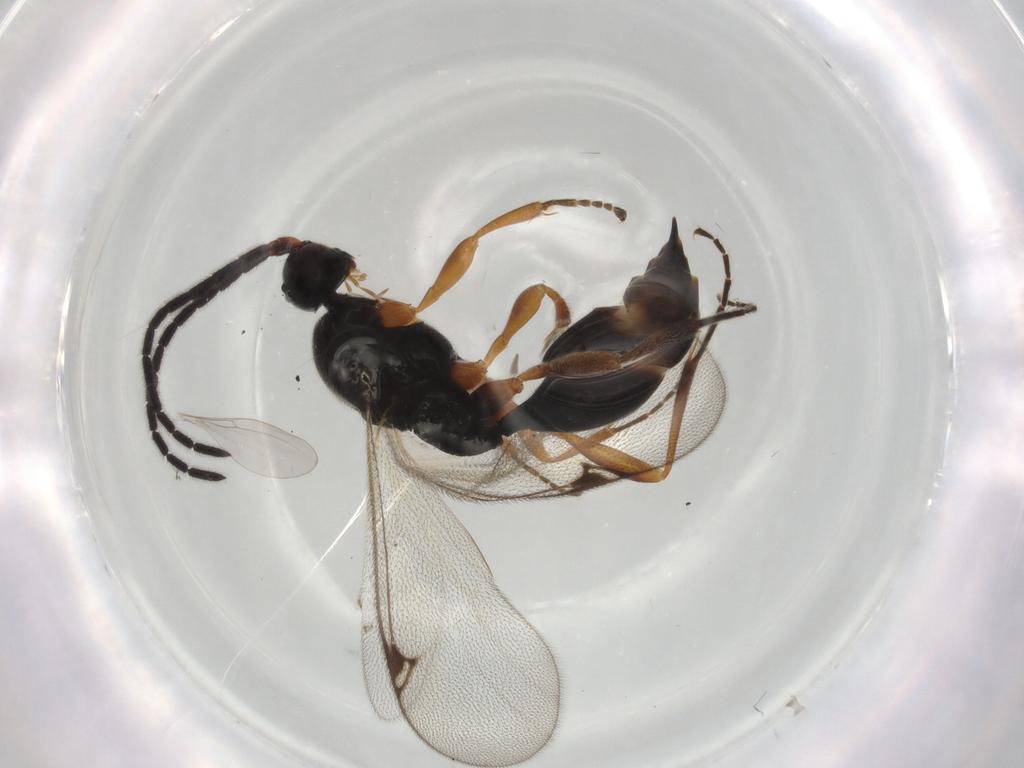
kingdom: Animalia
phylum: Arthropoda
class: Insecta
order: Hymenoptera
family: Proctotrupidae
